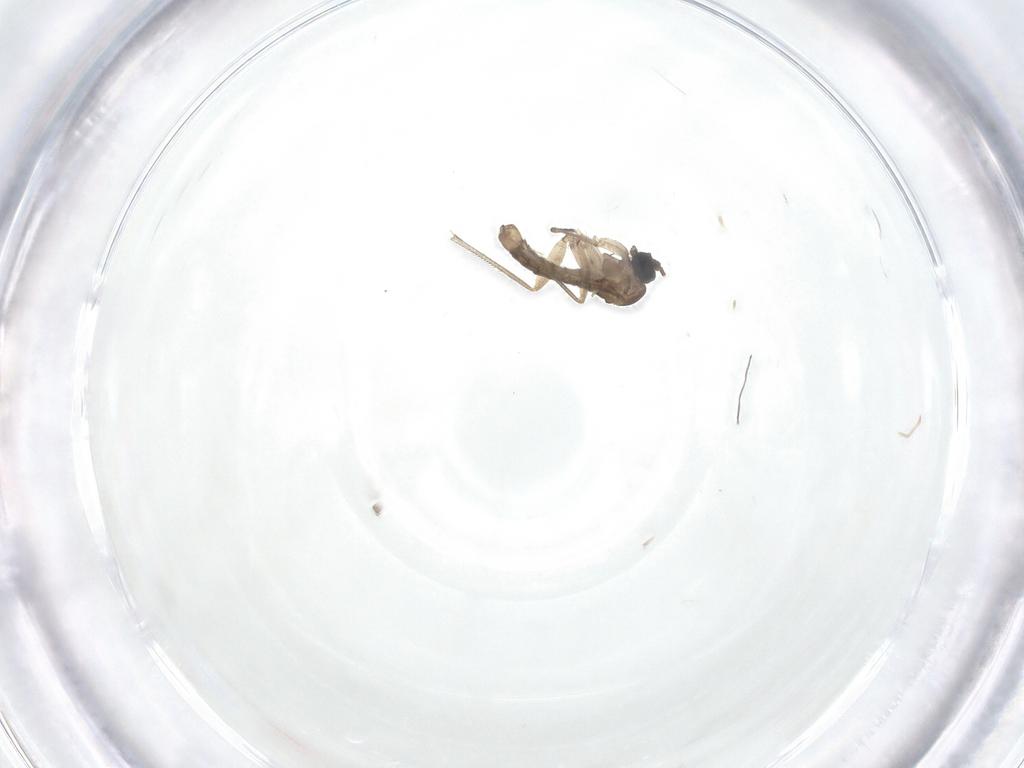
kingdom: Animalia
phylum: Arthropoda
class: Insecta
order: Diptera
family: Sciaridae
